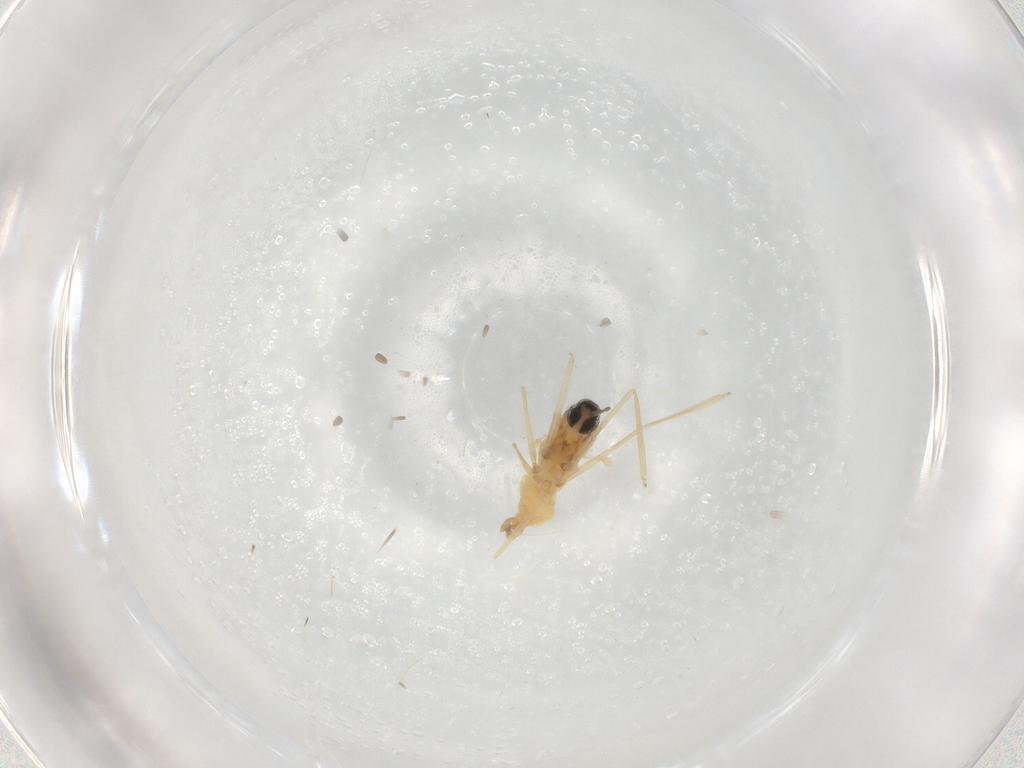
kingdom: Animalia
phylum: Arthropoda
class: Insecta
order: Diptera
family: Cecidomyiidae
